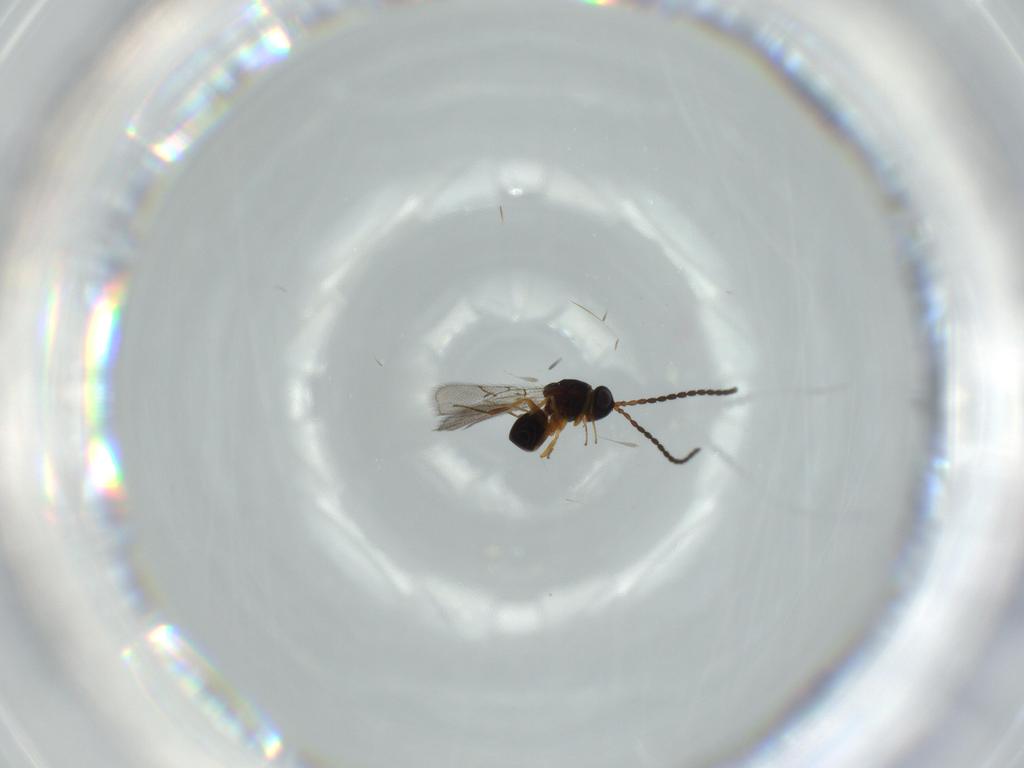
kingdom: Animalia
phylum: Arthropoda
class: Insecta
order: Hymenoptera
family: Figitidae
